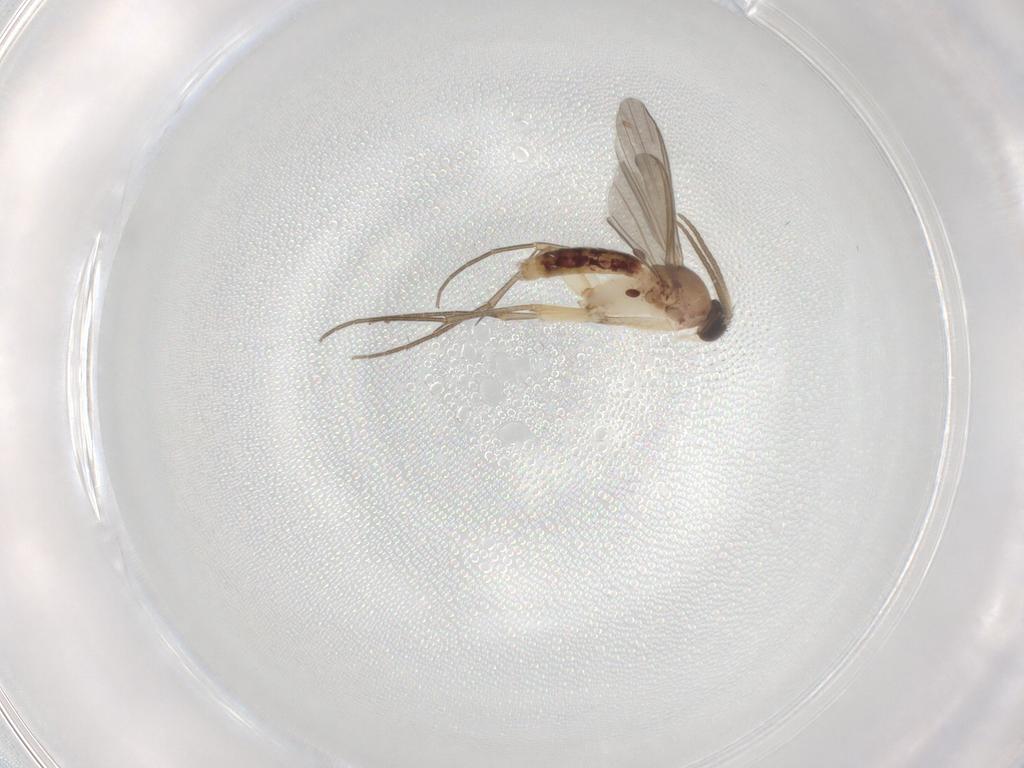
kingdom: Animalia
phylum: Arthropoda
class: Insecta
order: Diptera
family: Mycetophilidae
